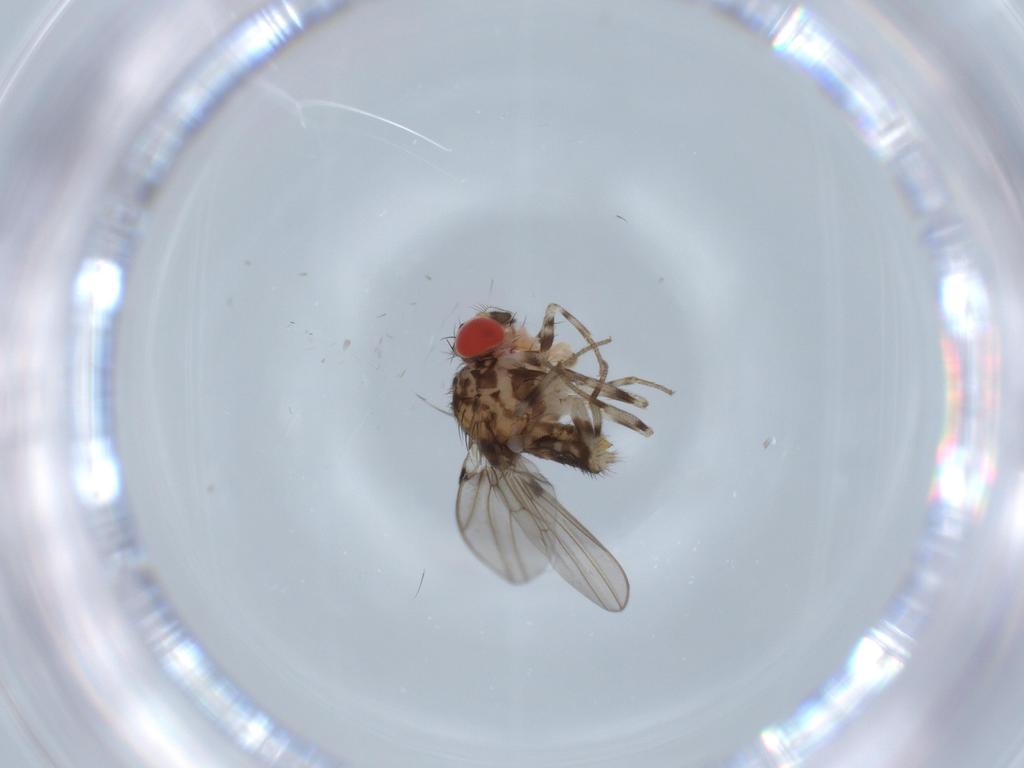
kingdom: Animalia
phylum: Arthropoda
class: Insecta
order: Diptera
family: Drosophilidae
